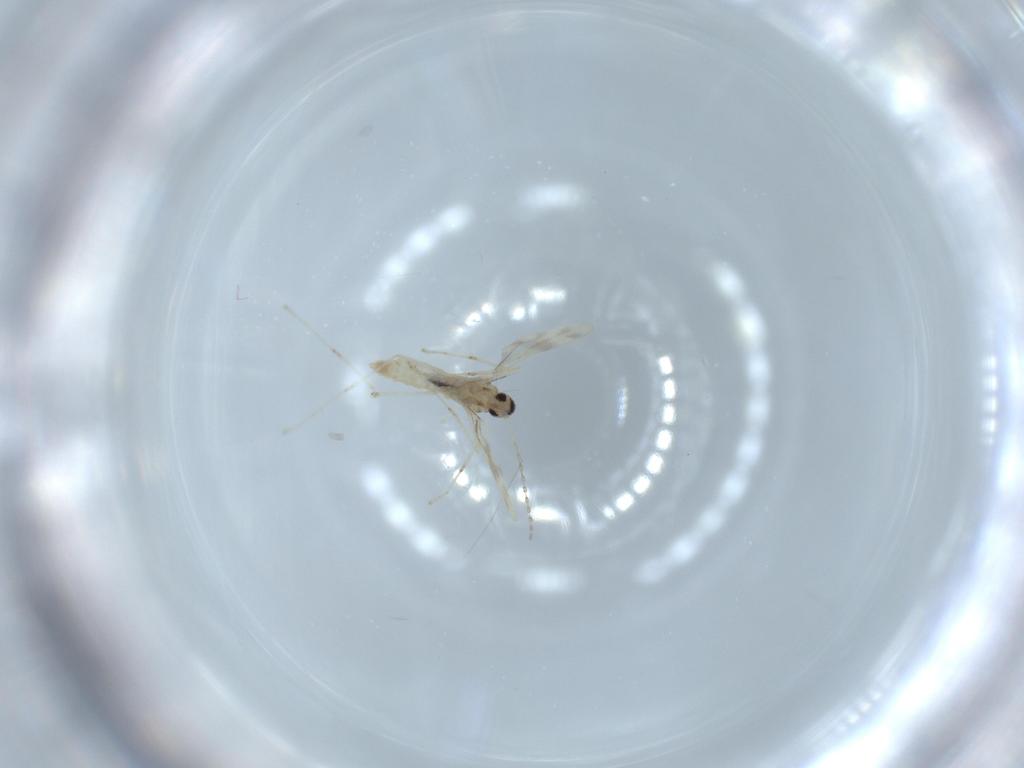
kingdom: Animalia
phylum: Arthropoda
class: Insecta
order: Diptera
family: Cecidomyiidae
